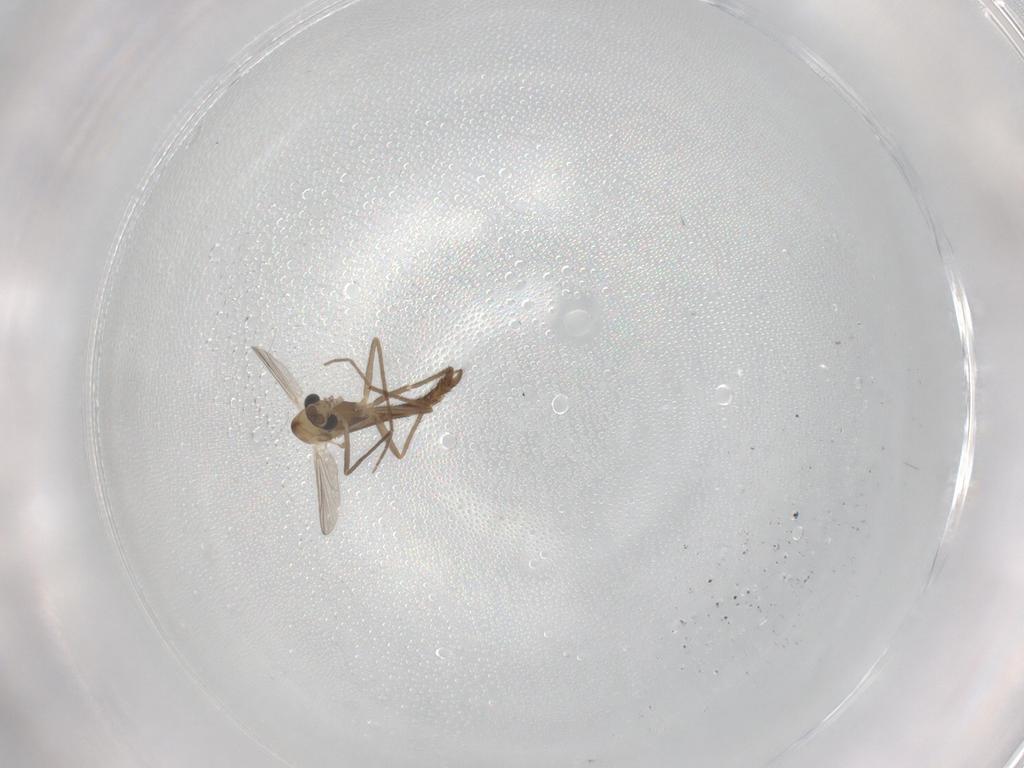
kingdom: Animalia
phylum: Arthropoda
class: Insecta
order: Diptera
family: Chironomidae
